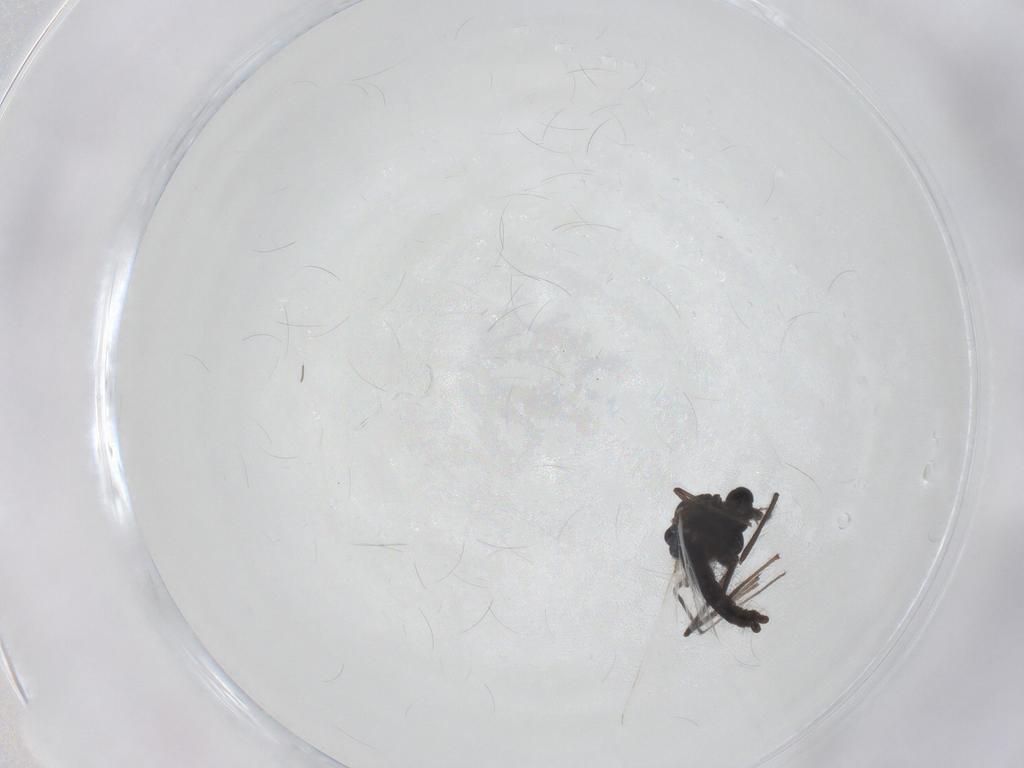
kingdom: Animalia
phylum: Arthropoda
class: Insecta
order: Diptera
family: Chironomidae
